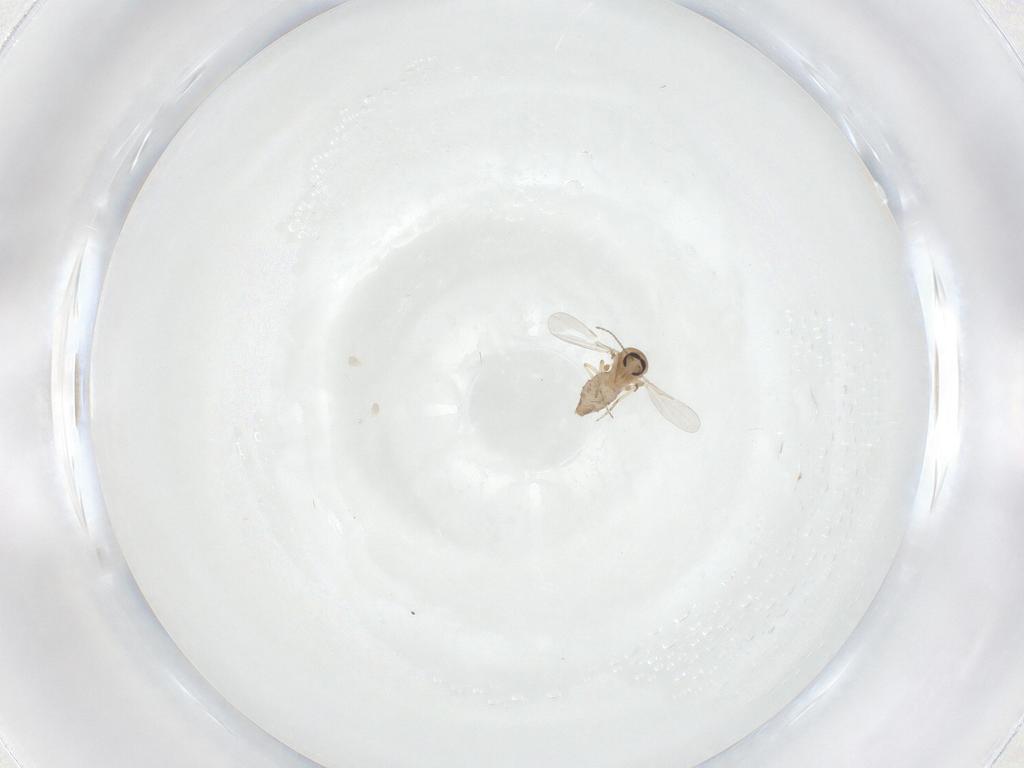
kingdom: Animalia
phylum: Arthropoda
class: Insecta
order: Diptera
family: Ceratopogonidae
